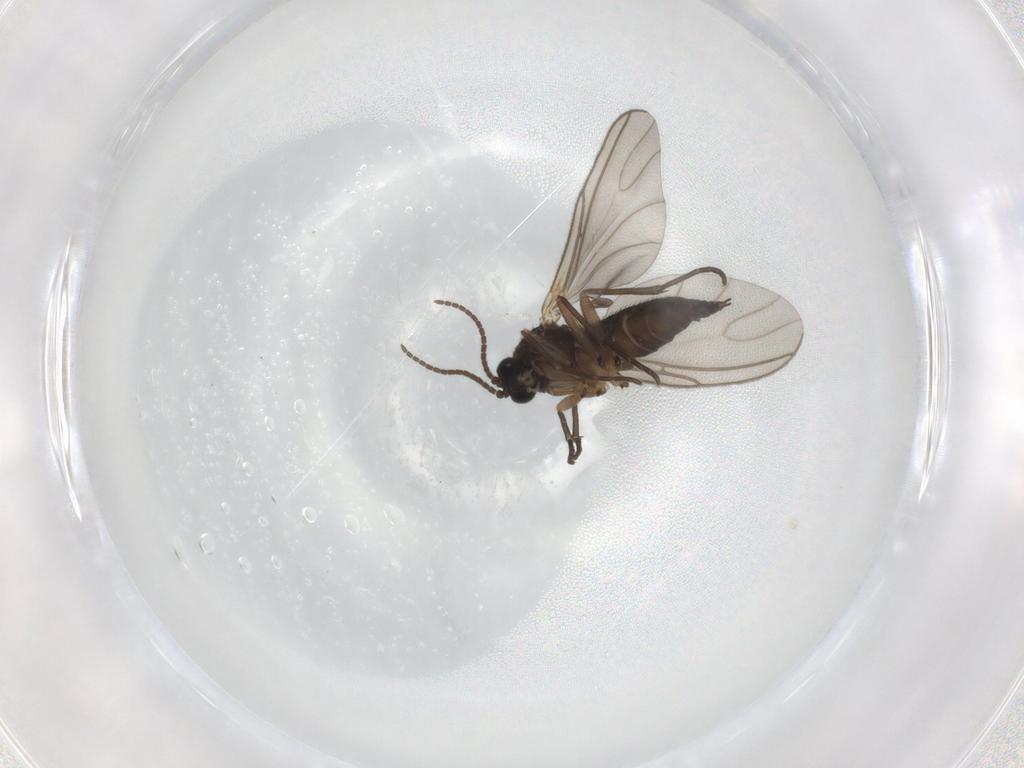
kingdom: Animalia
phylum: Arthropoda
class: Insecta
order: Diptera
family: Sciaridae
